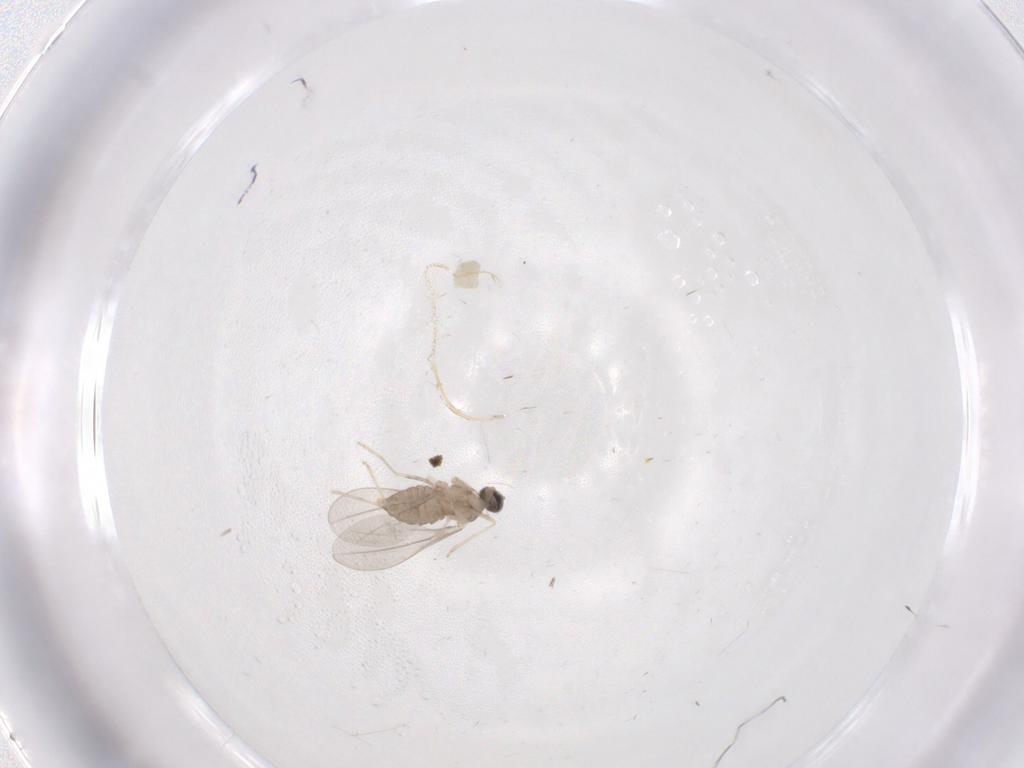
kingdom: Animalia
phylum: Arthropoda
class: Insecta
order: Diptera
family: Cecidomyiidae
